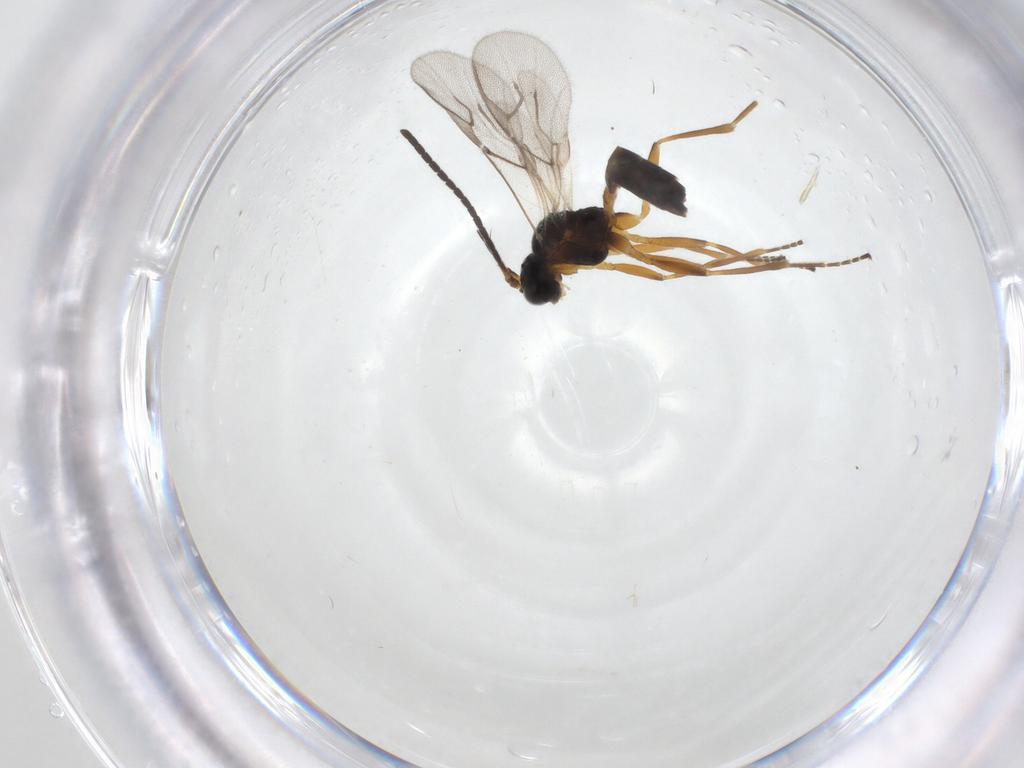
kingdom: Animalia
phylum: Arthropoda
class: Insecta
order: Hymenoptera
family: Braconidae
